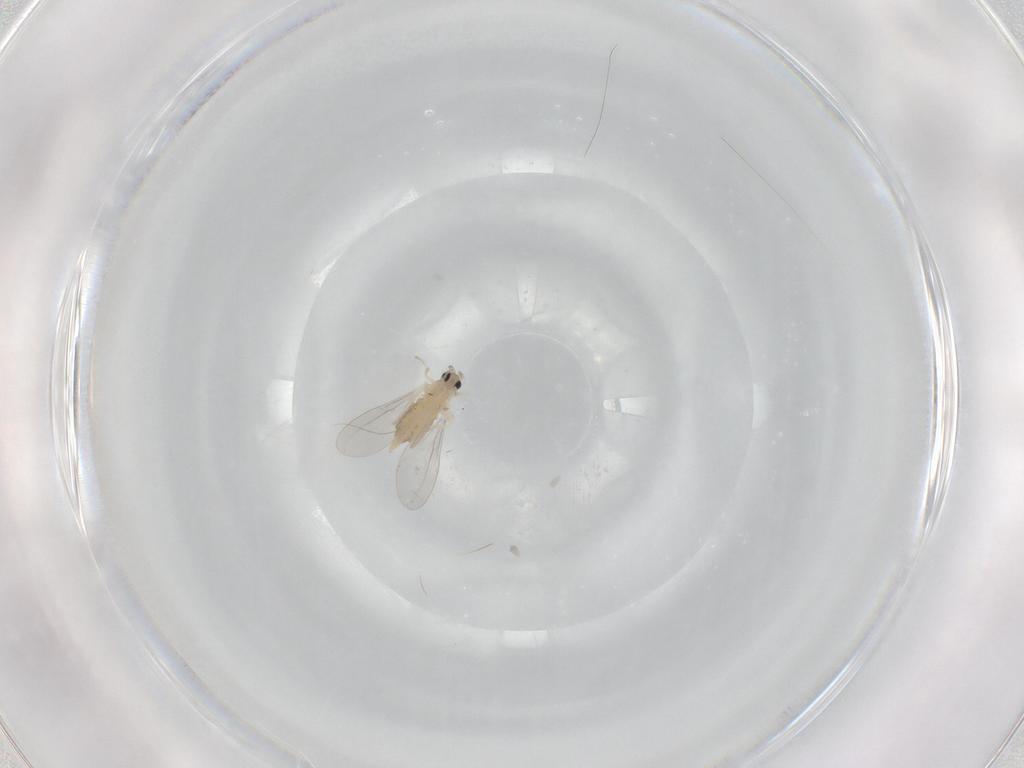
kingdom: Animalia
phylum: Arthropoda
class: Insecta
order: Diptera
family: Cecidomyiidae
